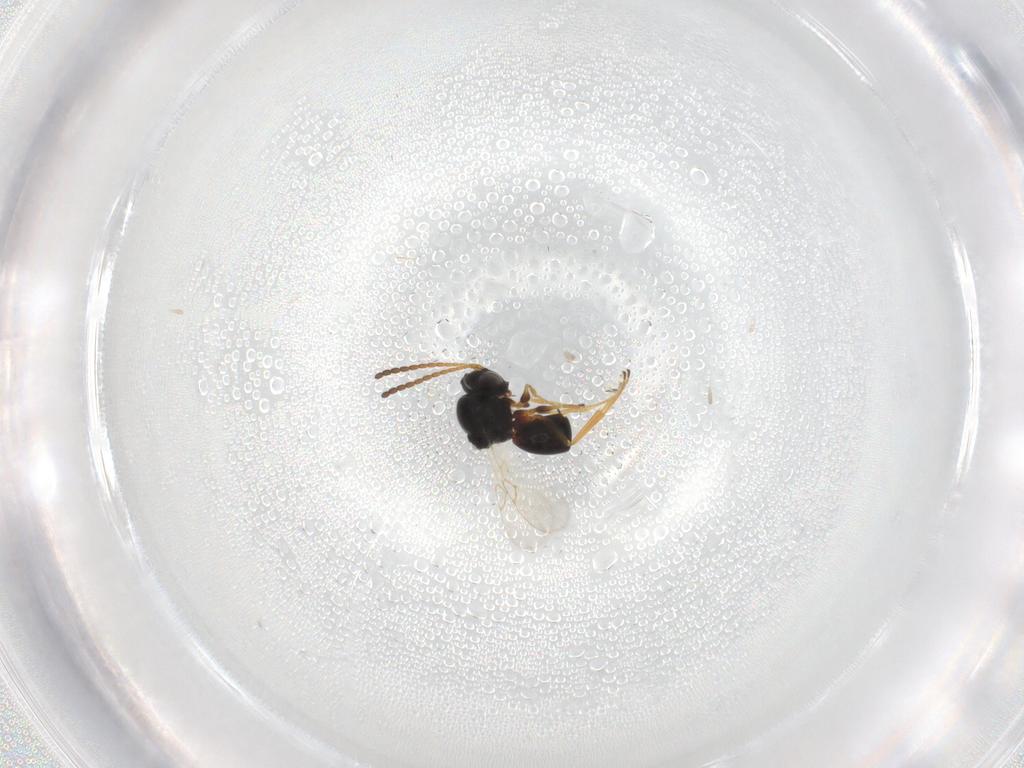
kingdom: Animalia
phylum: Arthropoda
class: Insecta
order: Hymenoptera
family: Figitidae
